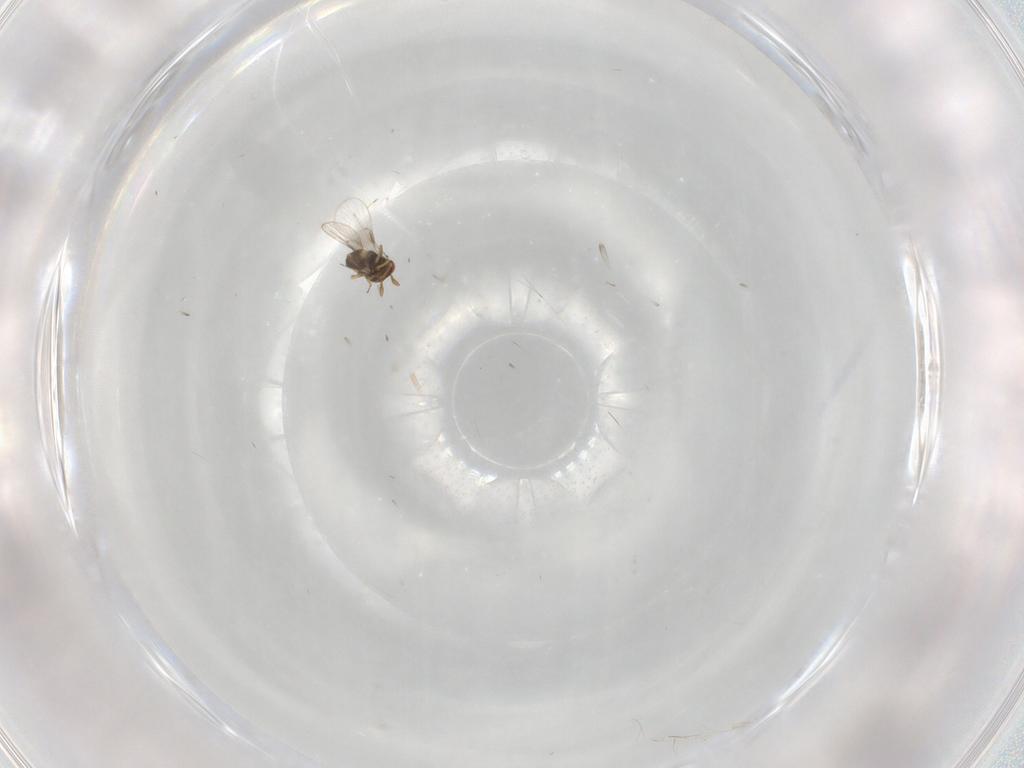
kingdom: Animalia
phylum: Arthropoda
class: Insecta
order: Hymenoptera
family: Trichogrammatidae
